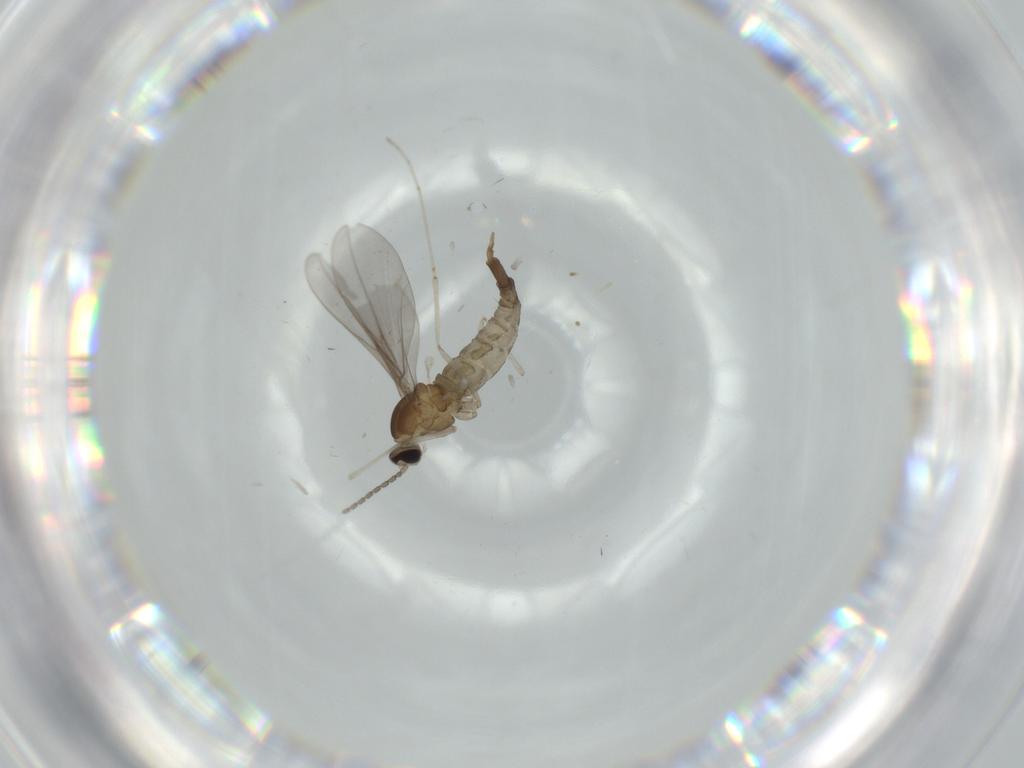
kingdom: Animalia
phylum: Arthropoda
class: Insecta
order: Diptera
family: Cecidomyiidae
